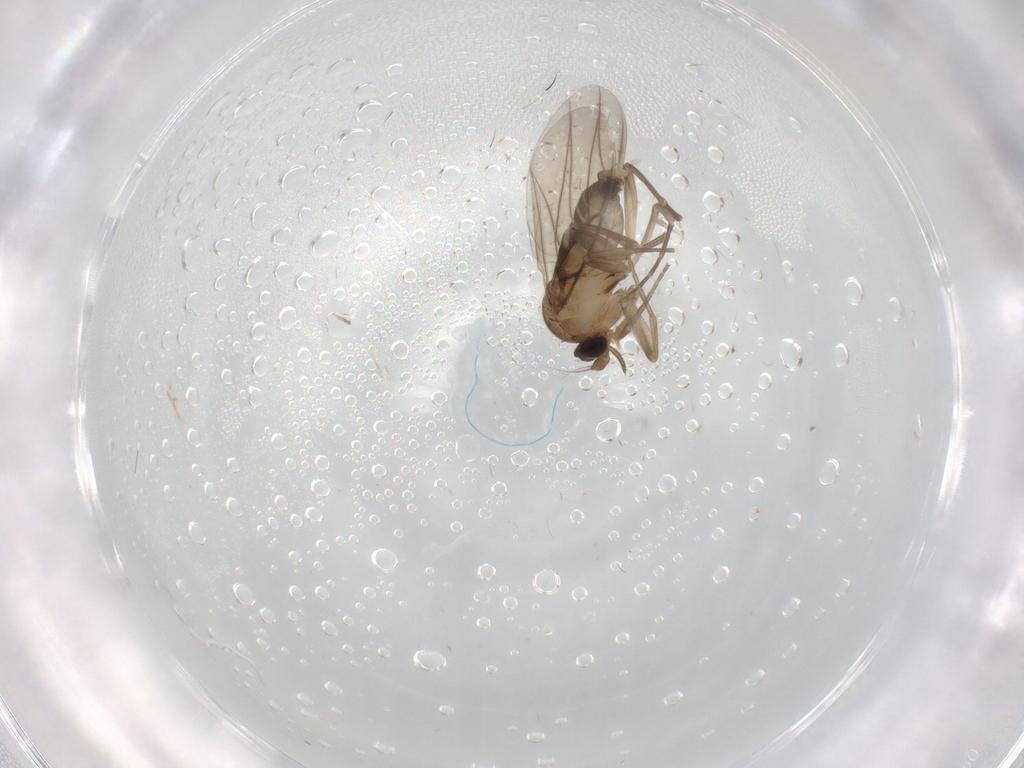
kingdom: Animalia
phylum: Arthropoda
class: Insecta
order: Diptera
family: Phoridae
